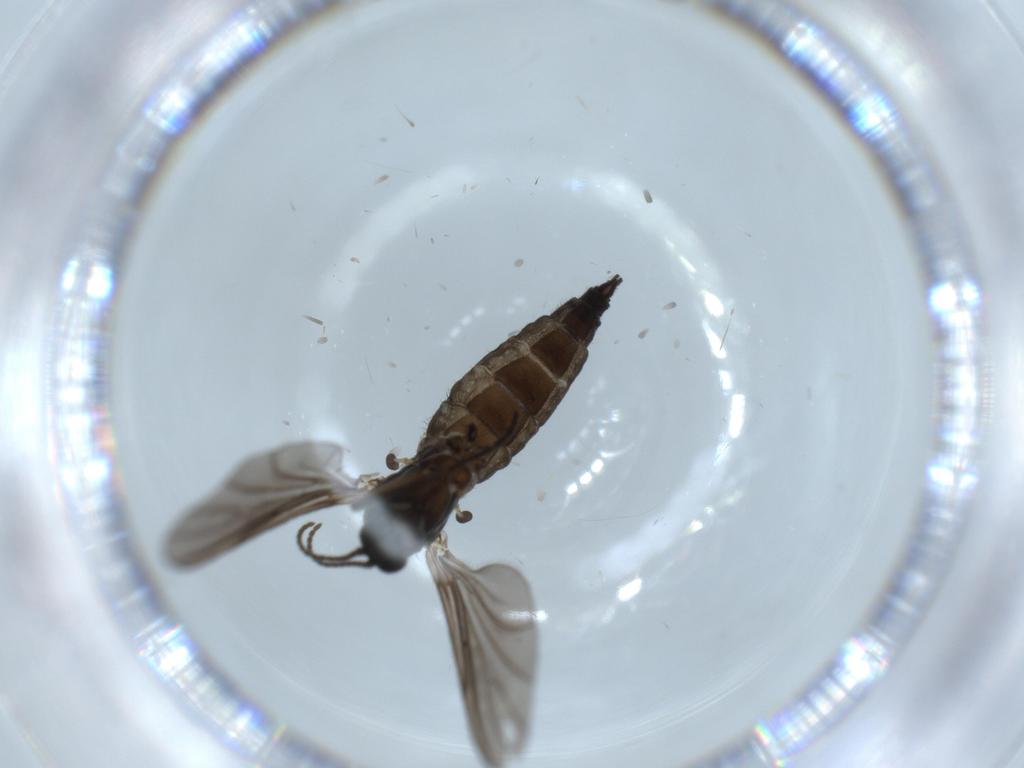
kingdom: Animalia
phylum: Arthropoda
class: Insecta
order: Diptera
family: Sciaridae
